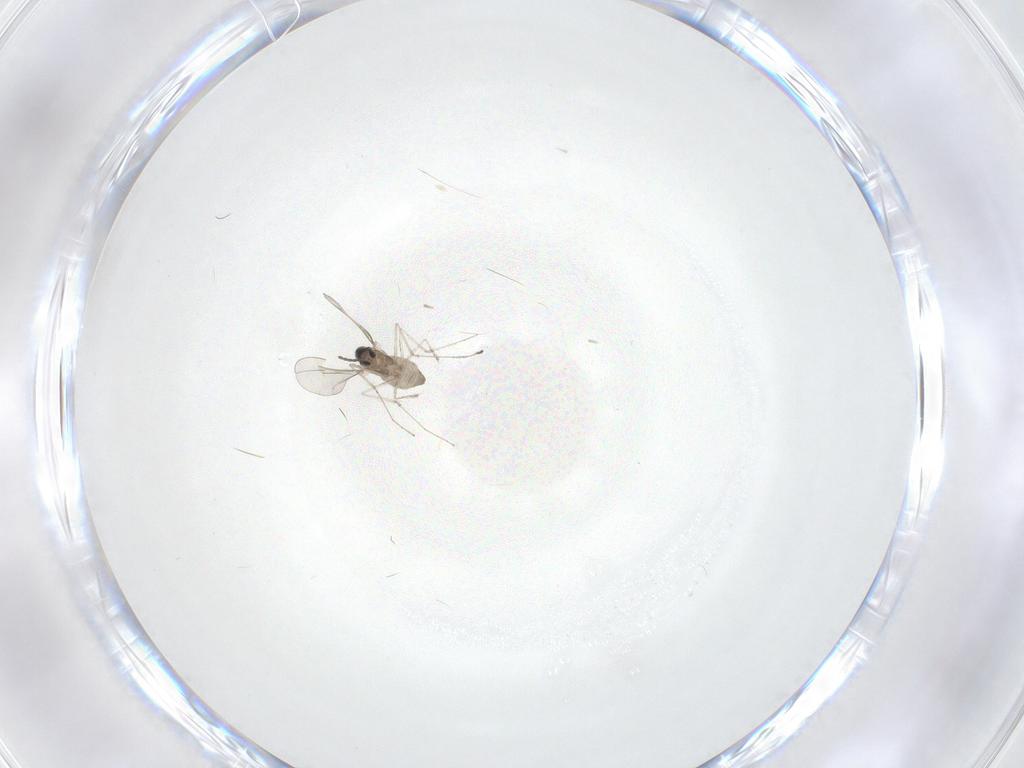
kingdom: Animalia
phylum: Arthropoda
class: Insecta
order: Diptera
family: Cecidomyiidae
